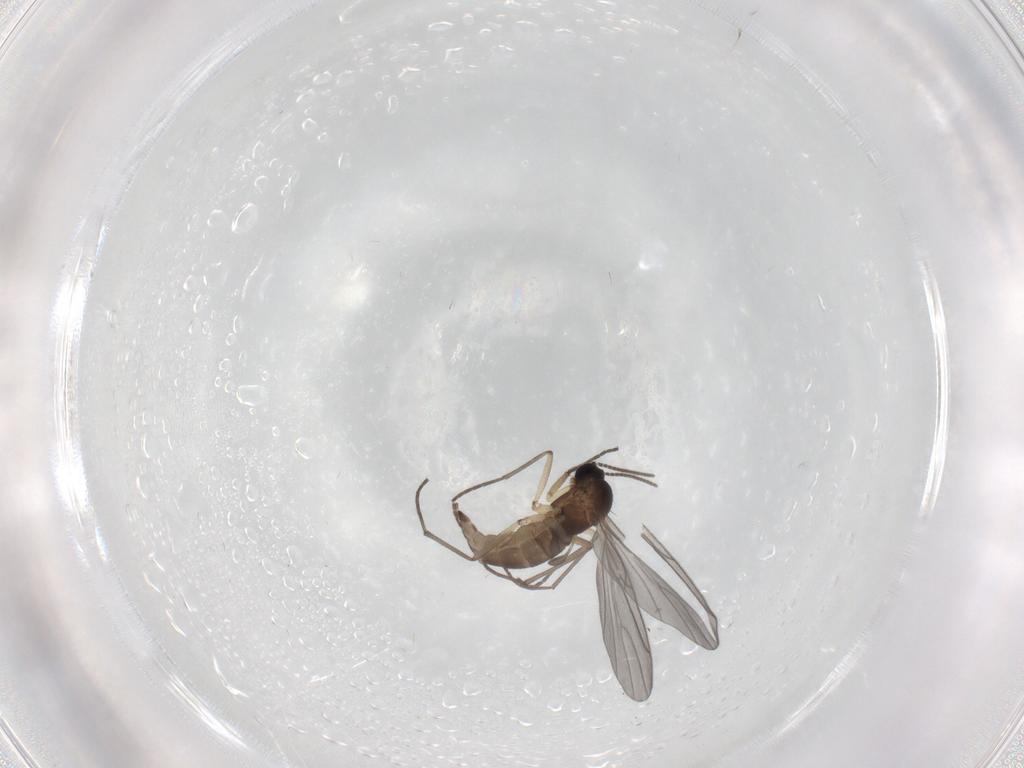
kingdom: Animalia
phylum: Arthropoda
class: Insecta
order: Diptera
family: Sciaridae
